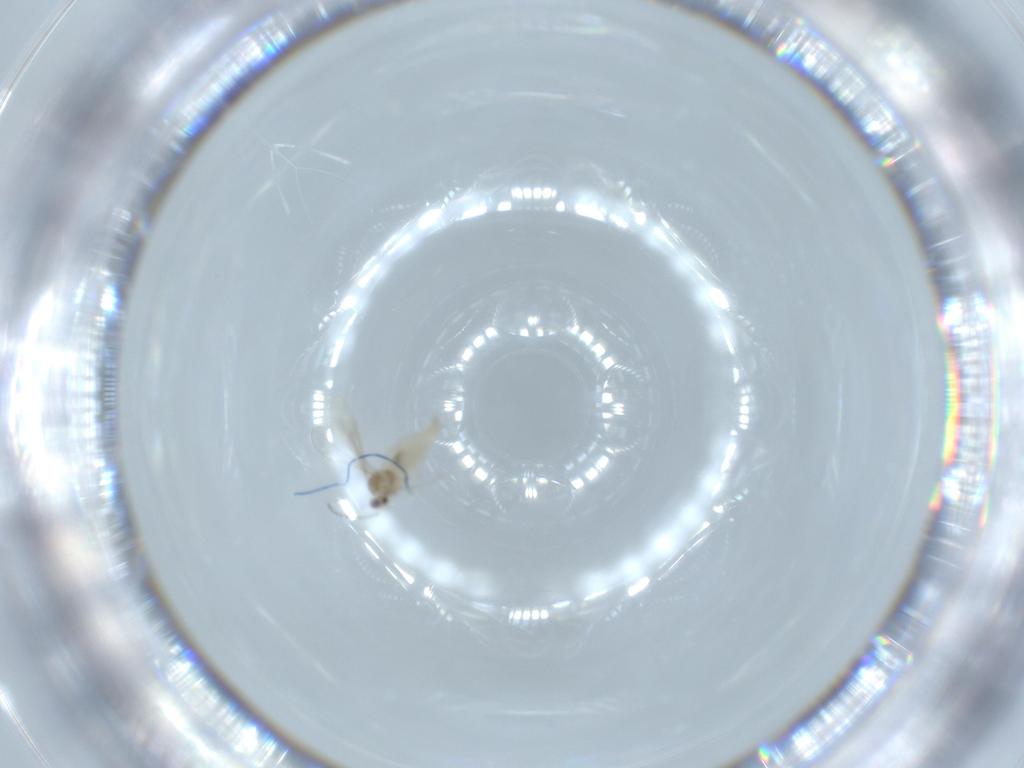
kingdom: Animalia
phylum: Arthropoda
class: Insecta
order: Diptera
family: Cecidomyiidae
